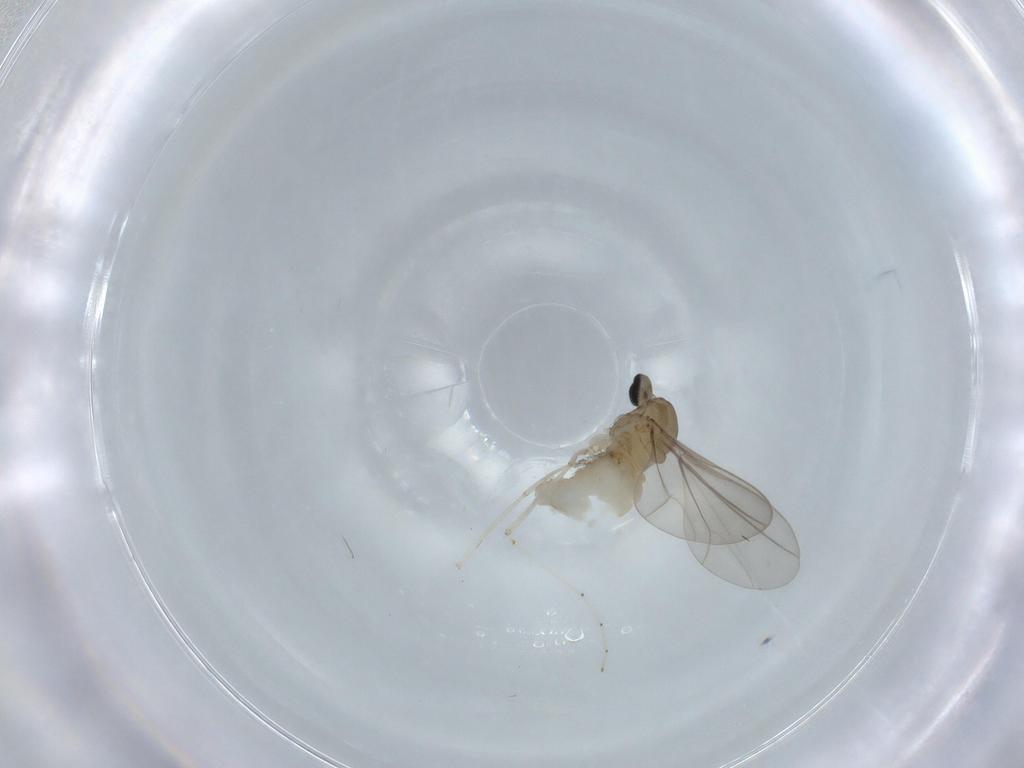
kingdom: Animalia
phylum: Arthropoda
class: Insecta
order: Diptera
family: Cecidomyiidae
